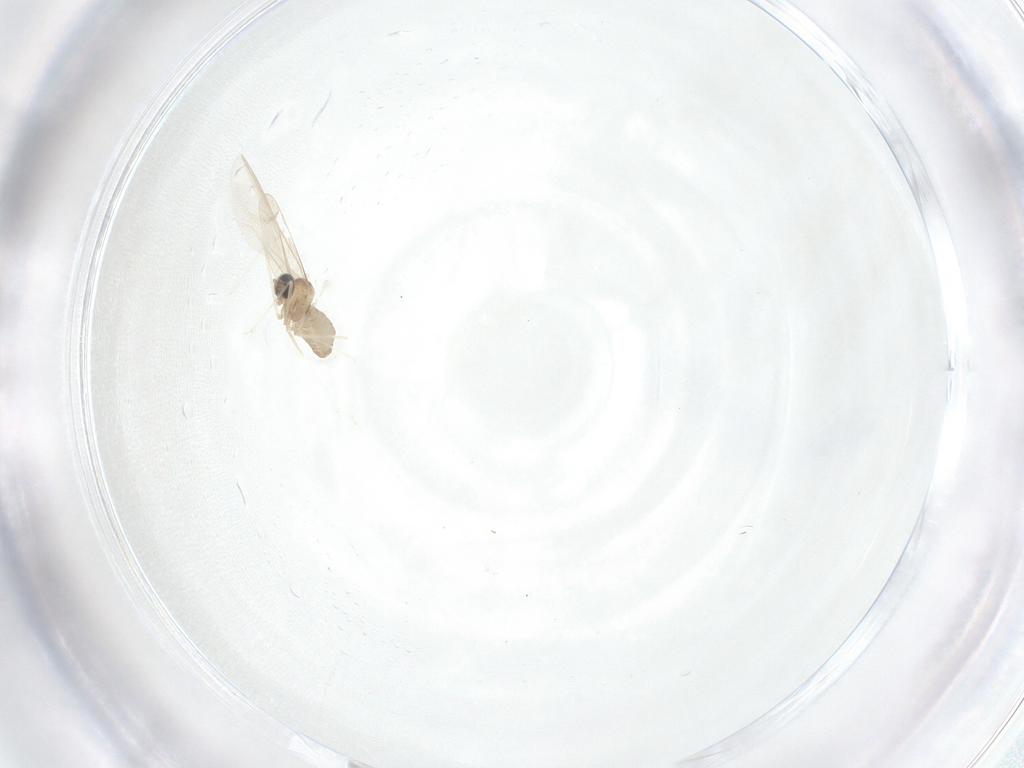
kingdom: Animalia
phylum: Arthropoda
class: Insecta
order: Diptera
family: Cecidomyiidae
